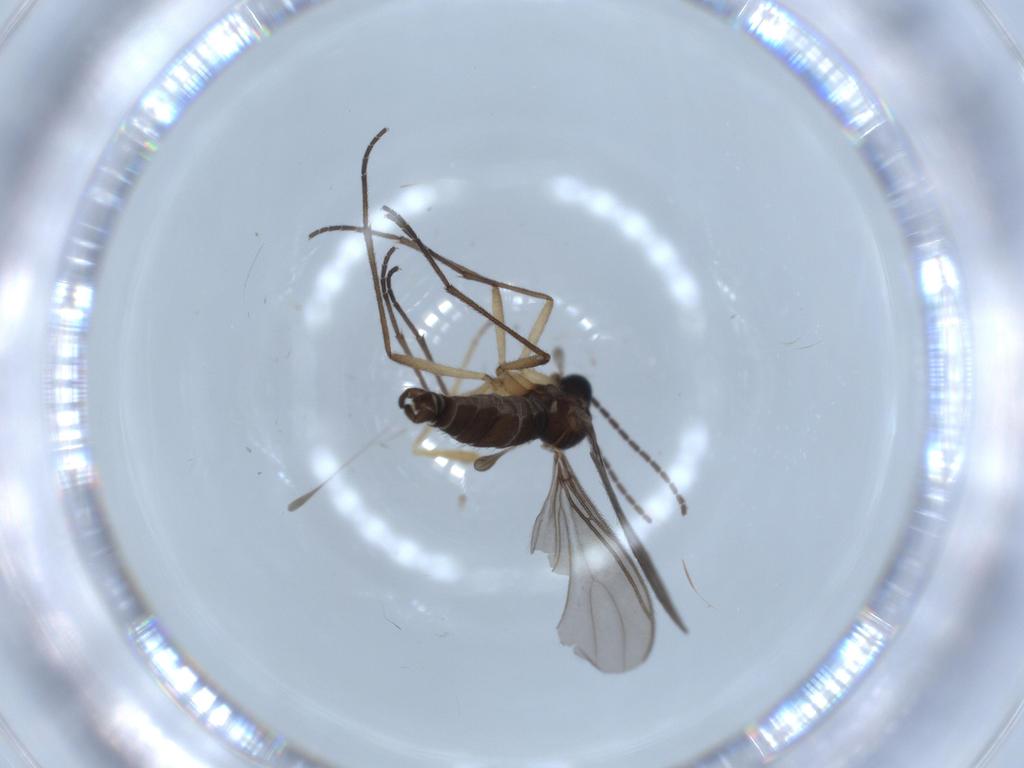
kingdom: Animalia
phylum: Arthropoda
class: Insecta
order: Diptera
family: Sciaridae
